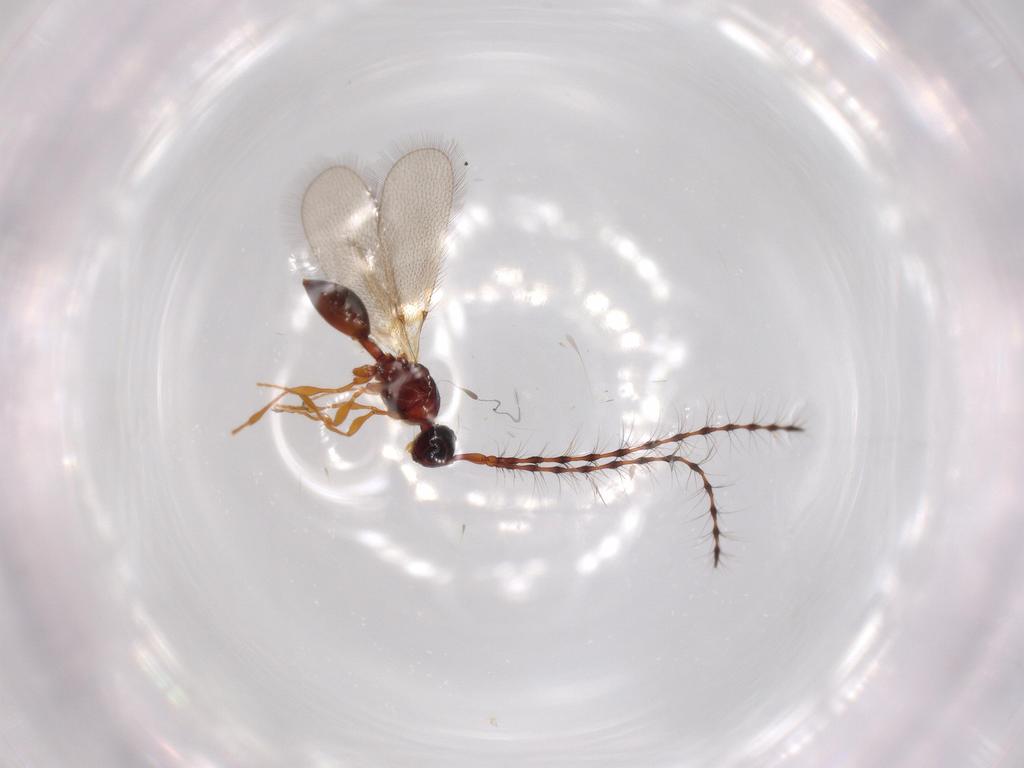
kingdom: Animalia
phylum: Arthropoda
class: Insecta
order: Hymenoptera
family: Diapriidae
